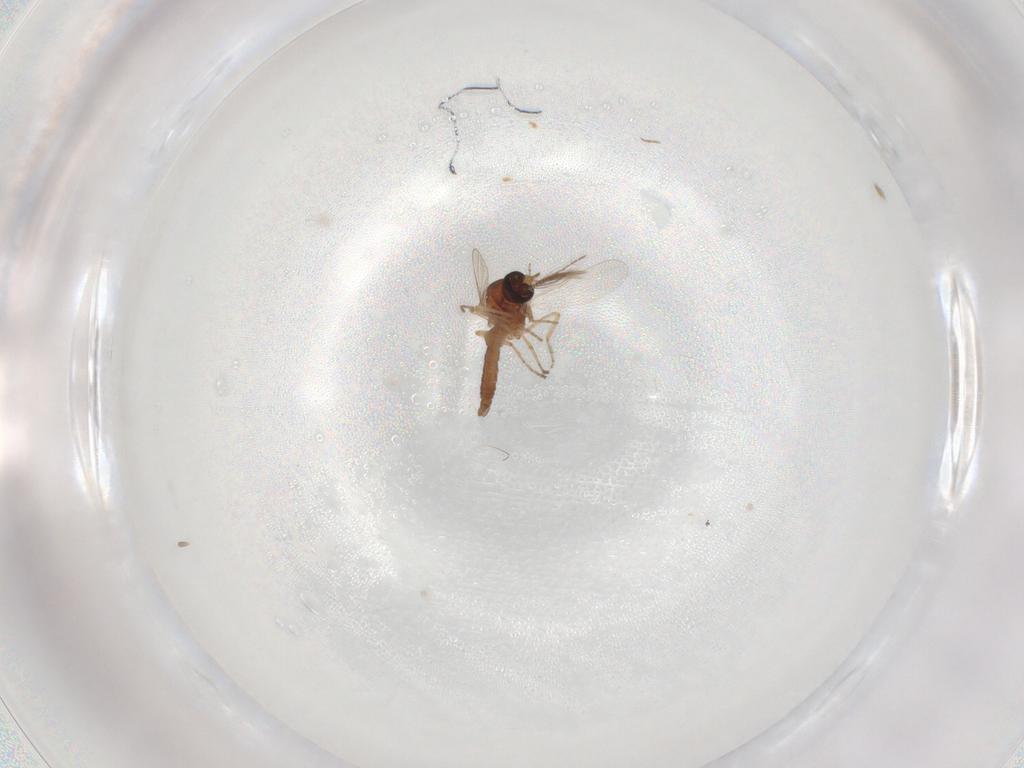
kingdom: Animalia
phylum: Arthropoda
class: Insecta
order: Diptera
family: Ceratopogonidae
